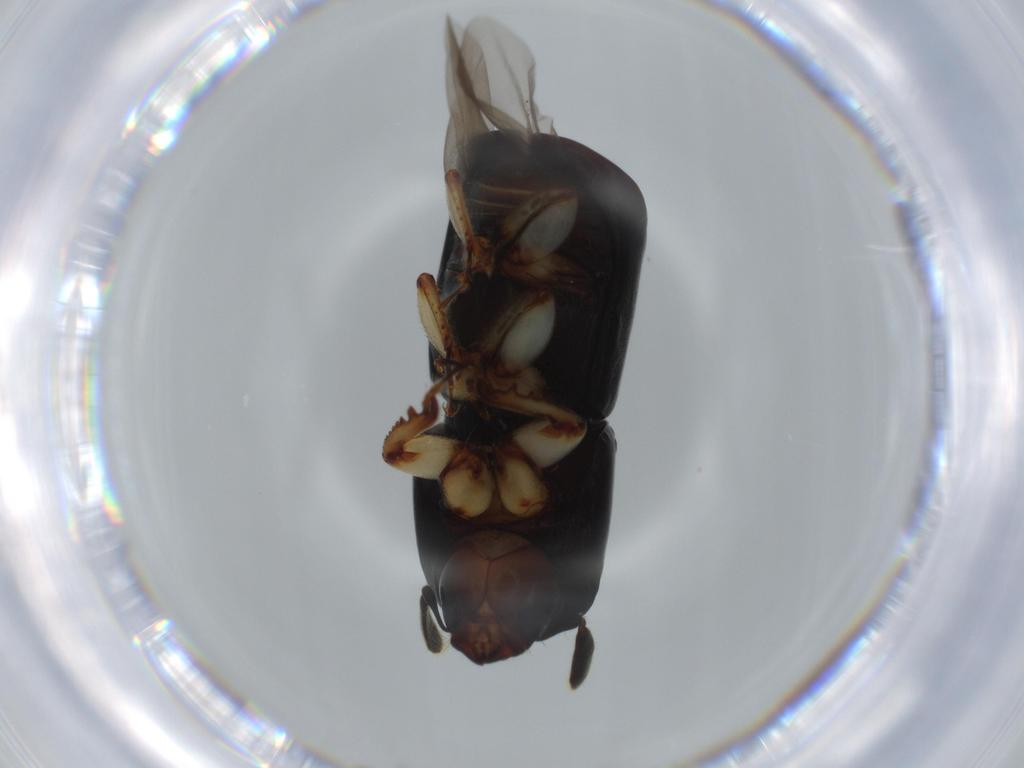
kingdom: Animalia
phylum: Arthropoda
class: Insecta
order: Coleoptera
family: Curculionidae
